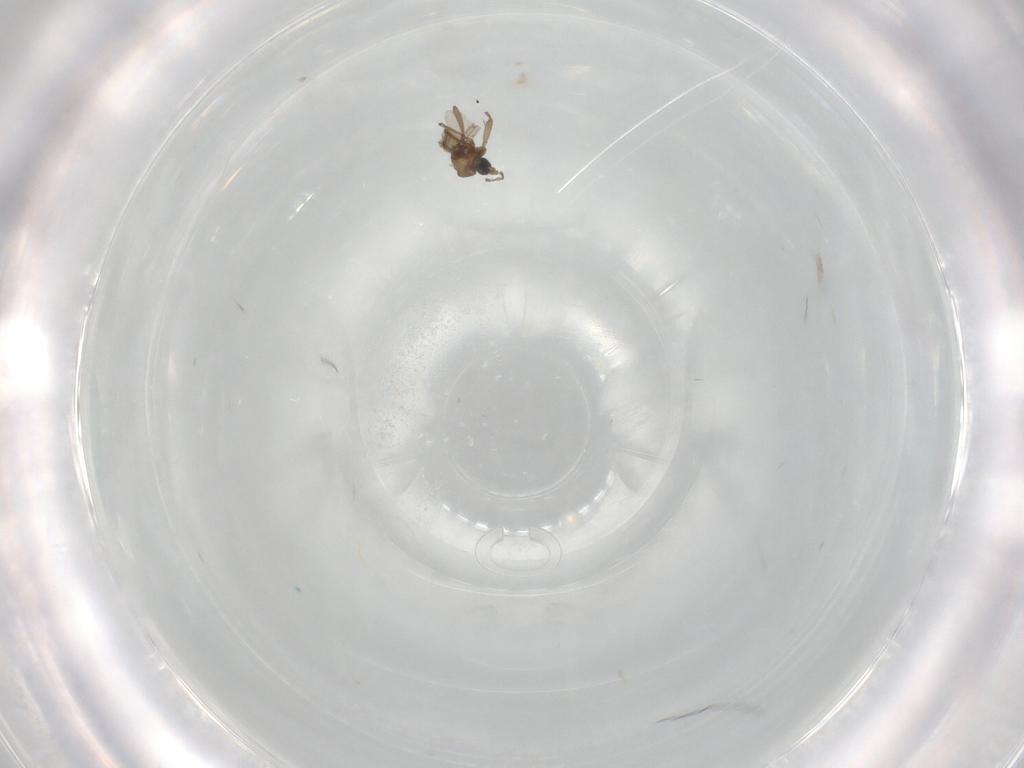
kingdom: Animalia
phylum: Arthropoda
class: Insecta
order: Diptera
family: Sciaridae
